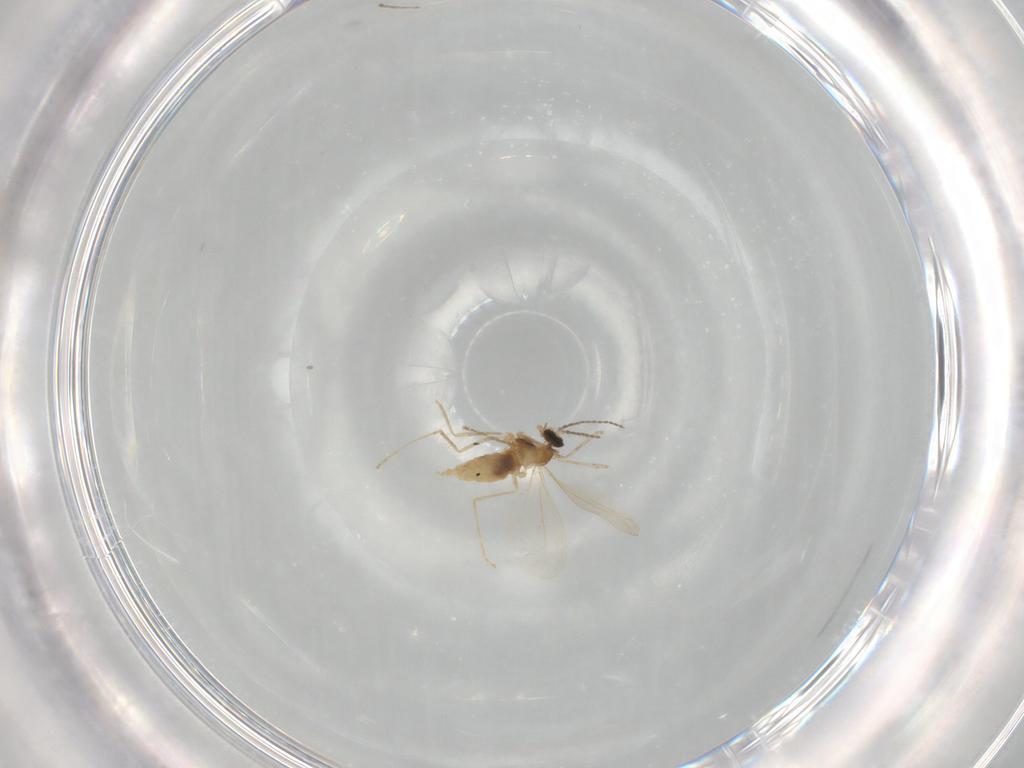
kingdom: Animalia
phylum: Arthropoda
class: Insecta
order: Diptera
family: Cecidomyiidae
